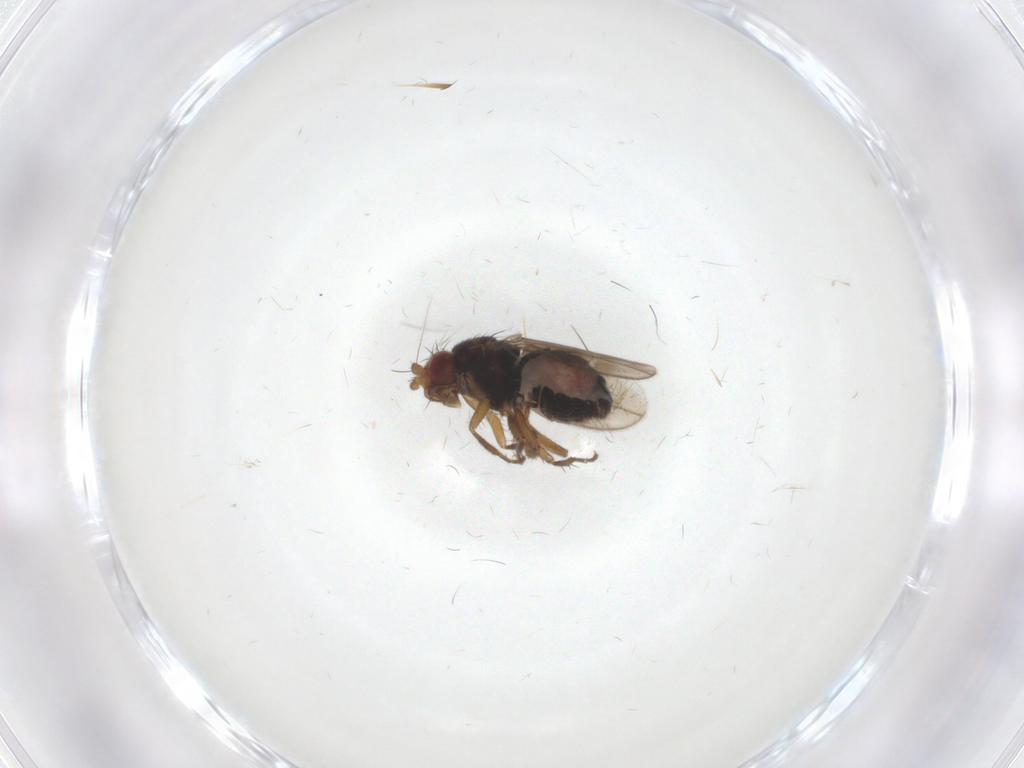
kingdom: Animalia
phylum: Arthropoda
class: Insecta
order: Diptera
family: Sphaeroceridae
